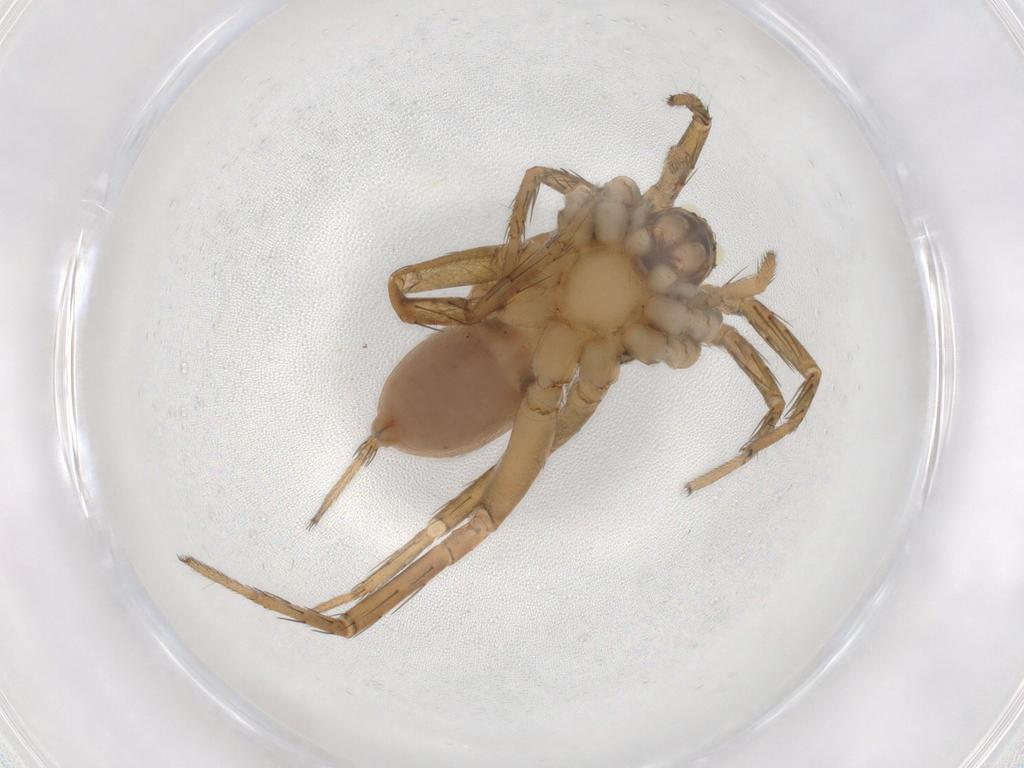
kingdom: Animalia
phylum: Arthropoda
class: Arachnida
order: Araneae
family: Lycosidae
